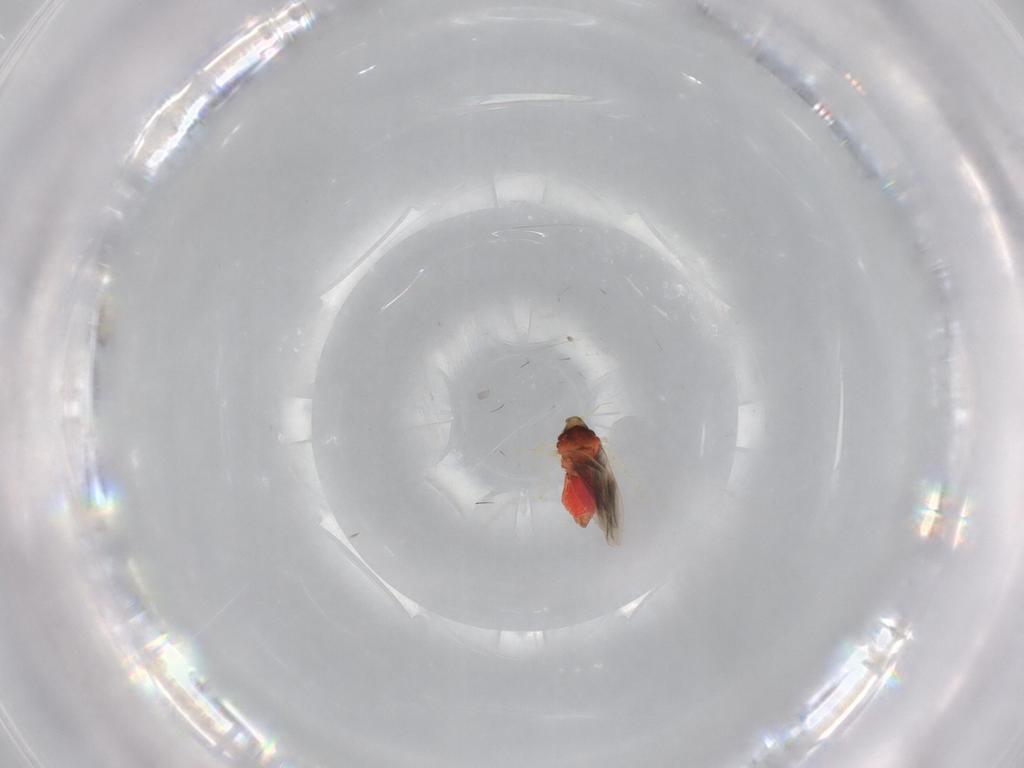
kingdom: Animalia
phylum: Arthropoda
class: Insecta
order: Hemiptera
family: Aleyrodidae
